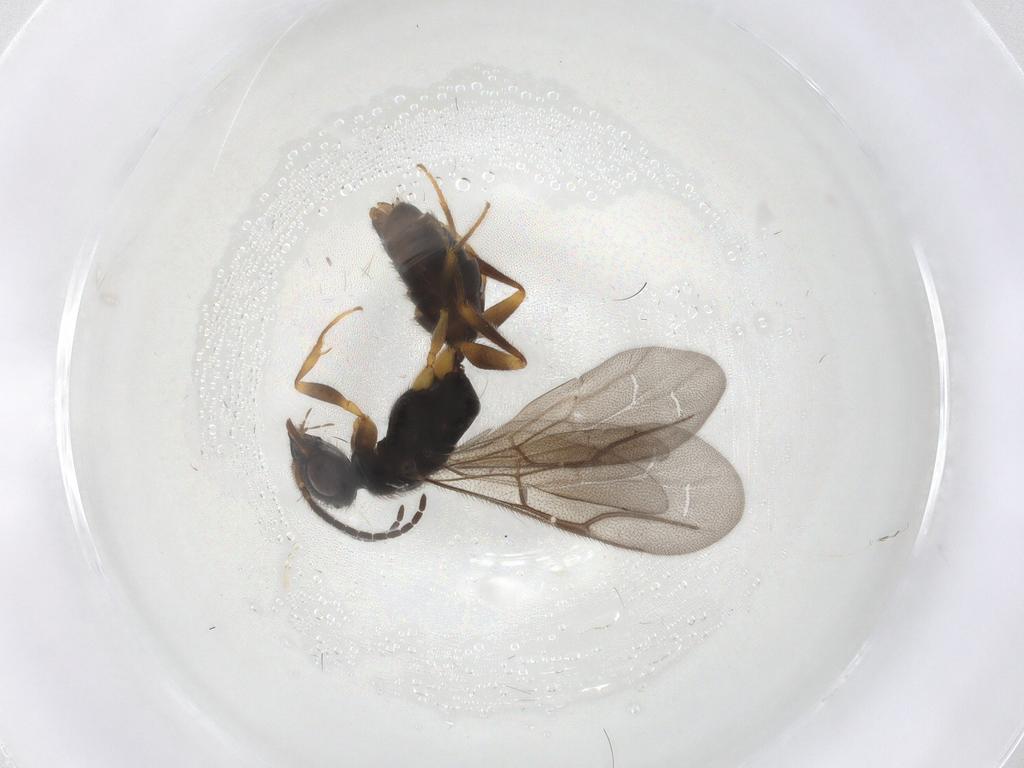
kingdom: Animalia
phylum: Arthropoda
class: Insecta
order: Hymenoptera
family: Bethylidae
